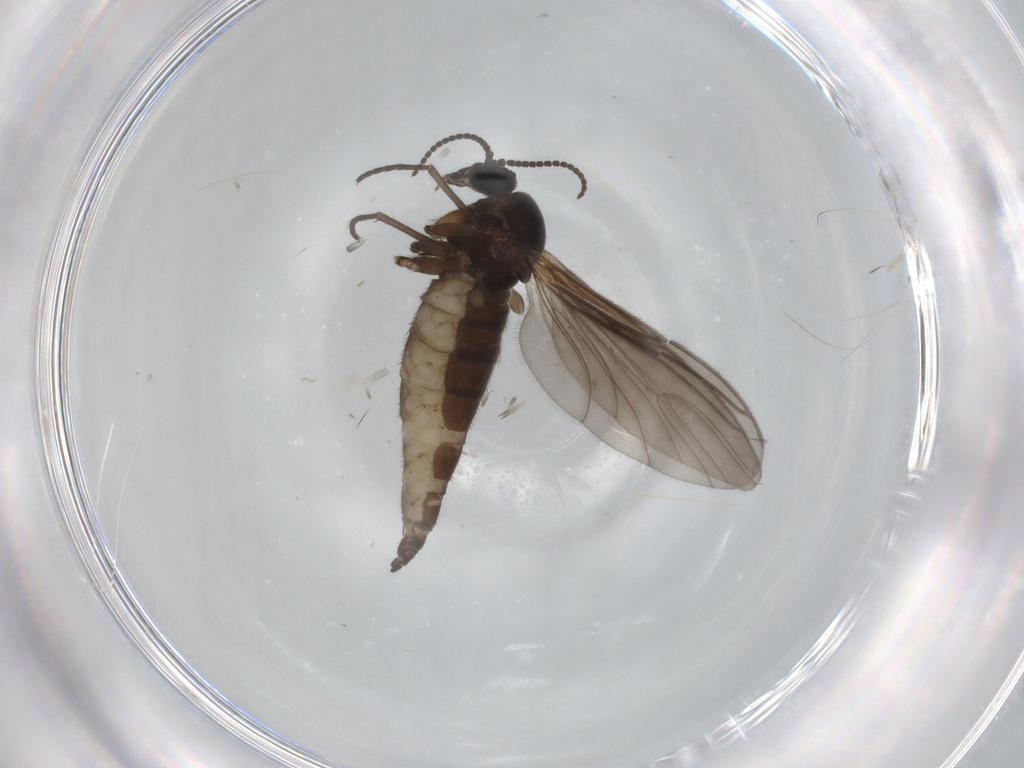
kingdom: Animalia
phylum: Arthropoda
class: Insecta
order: Diptera
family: Sciaridae
